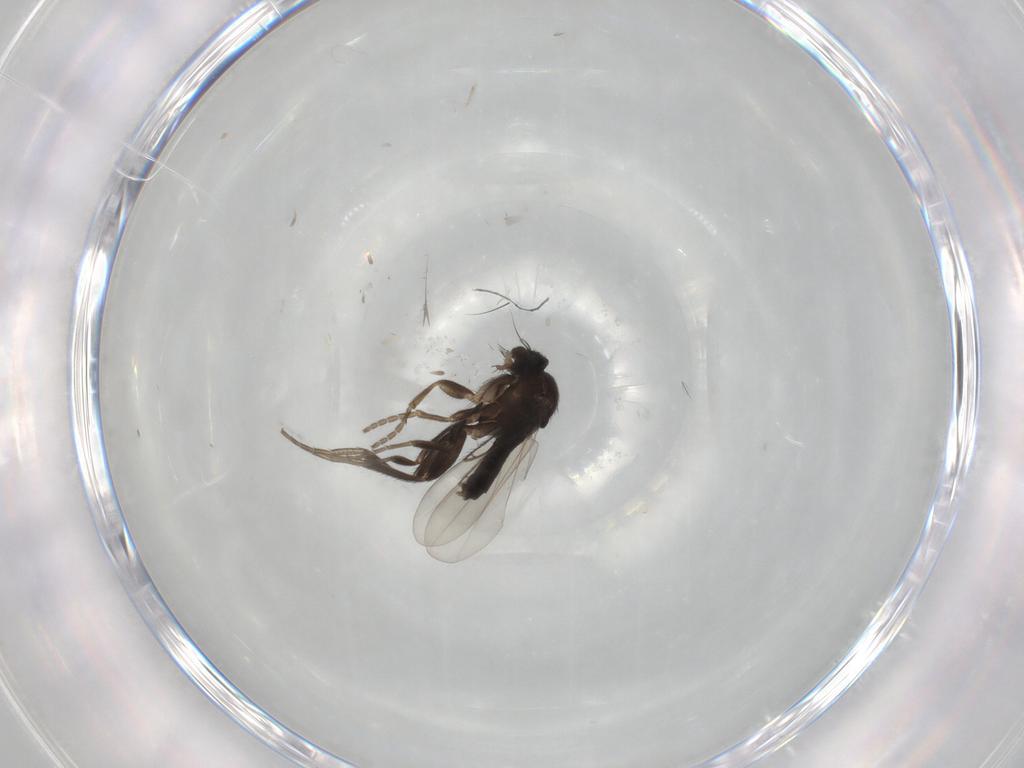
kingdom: Animalia
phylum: Arthropoda
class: Insecta
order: Diptera
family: Phoridae
